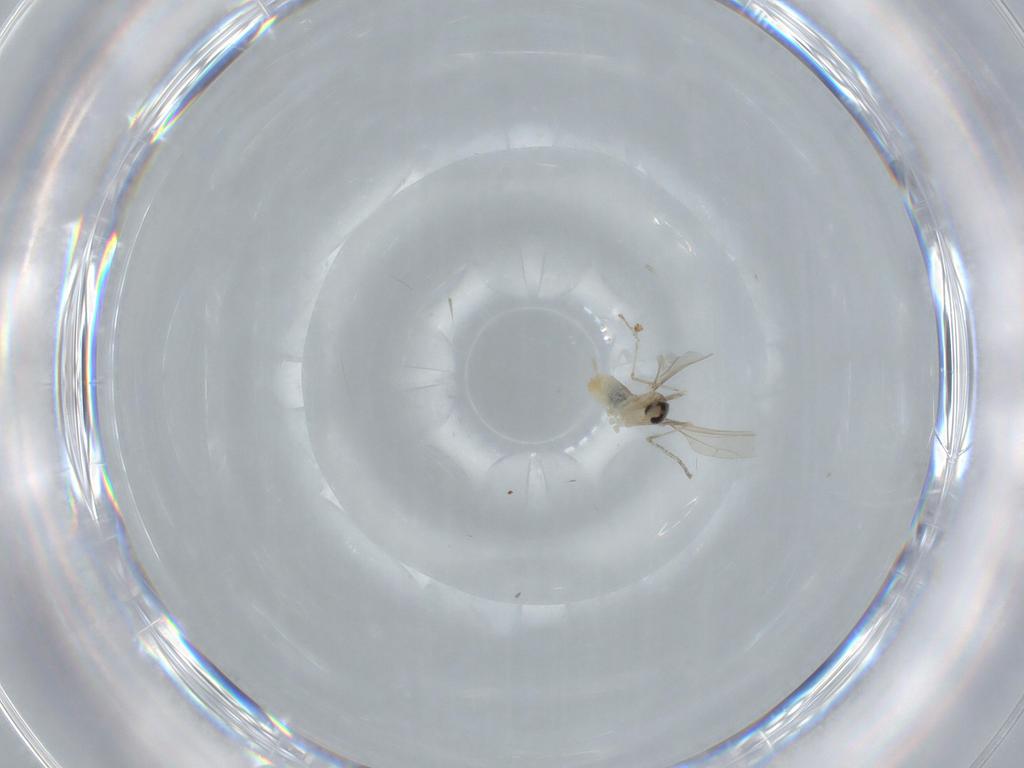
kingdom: Animalia
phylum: Arthropoda
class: Insecta
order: Diptera
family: Cecidomyiidae
